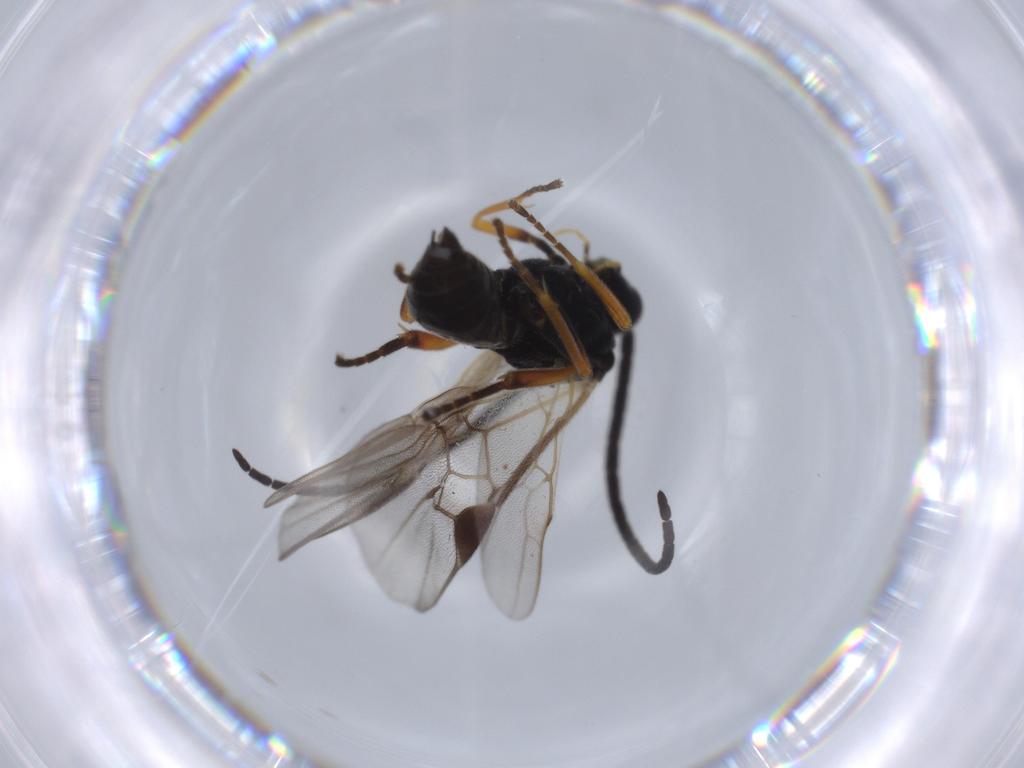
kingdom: Animalia
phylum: Arthropoda
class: Insecta
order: Hymenoptera
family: Braconidae
